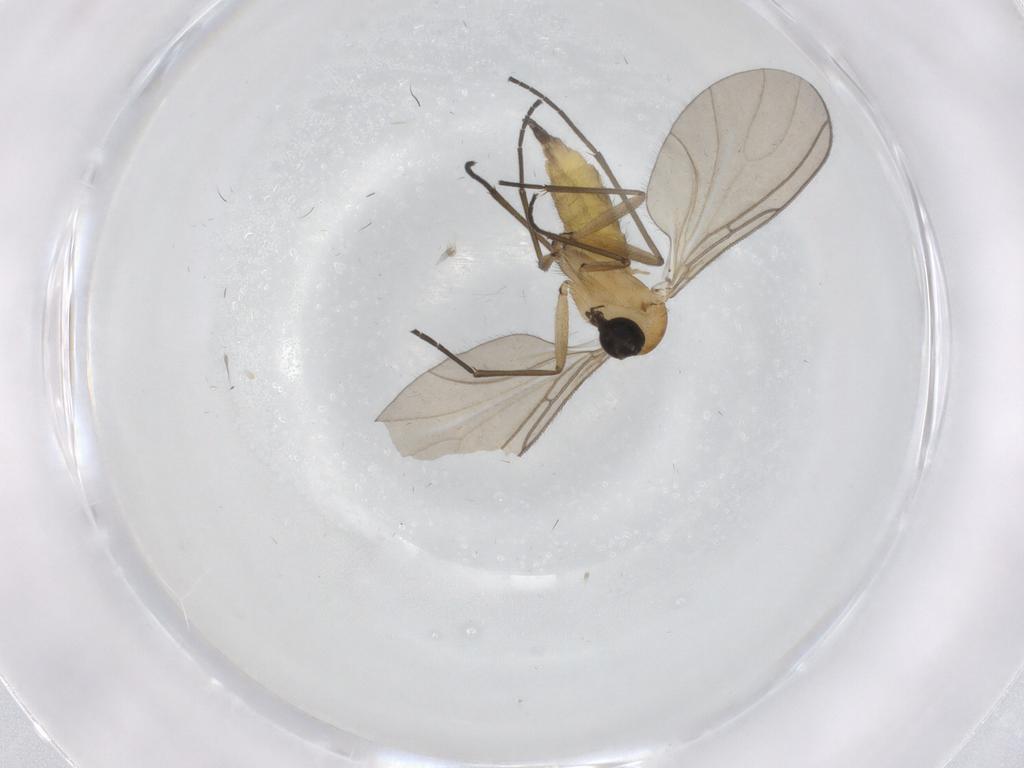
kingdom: Animalia
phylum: Arthropoda
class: Insecta
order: Diptera
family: Sciaridae
